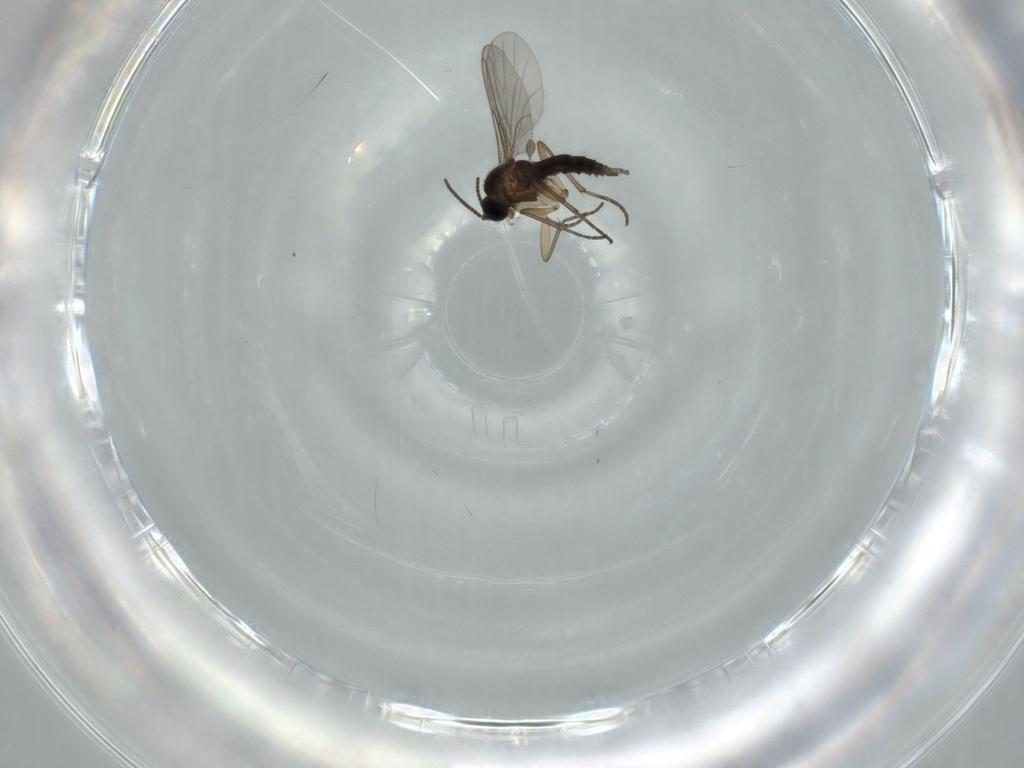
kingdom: Animalia
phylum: Arthropoda
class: Insecta
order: Diptera
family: Sciaridae
